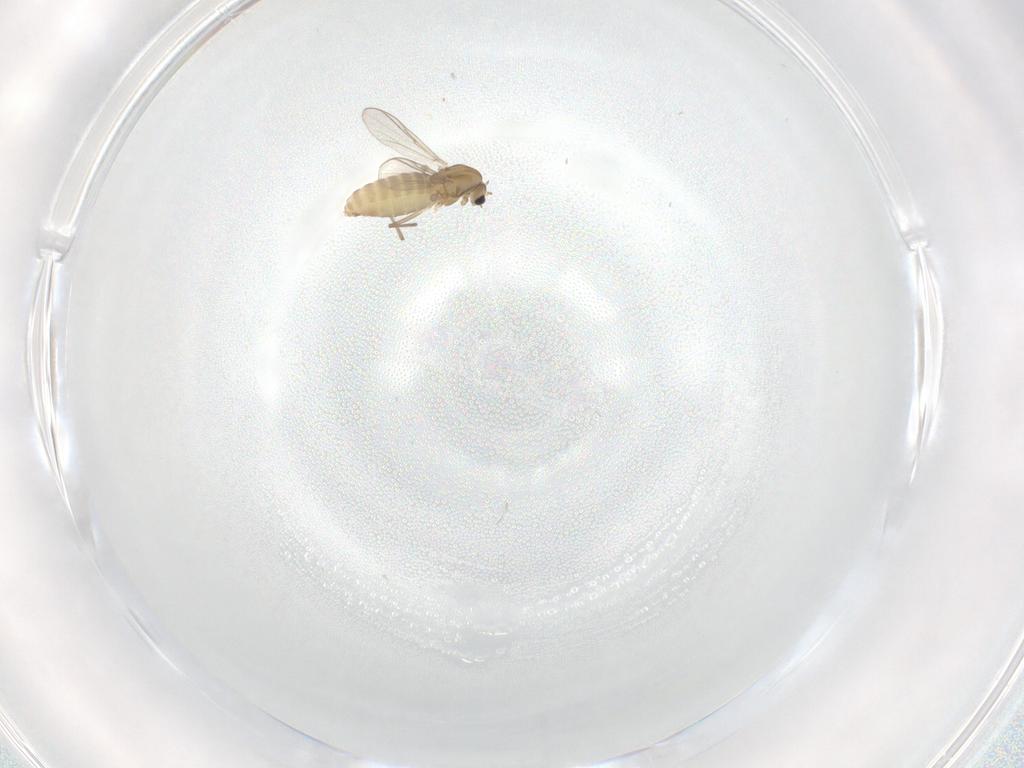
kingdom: Animalia
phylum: Arthropoda
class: Insecta
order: Diptera
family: Chironomidae
